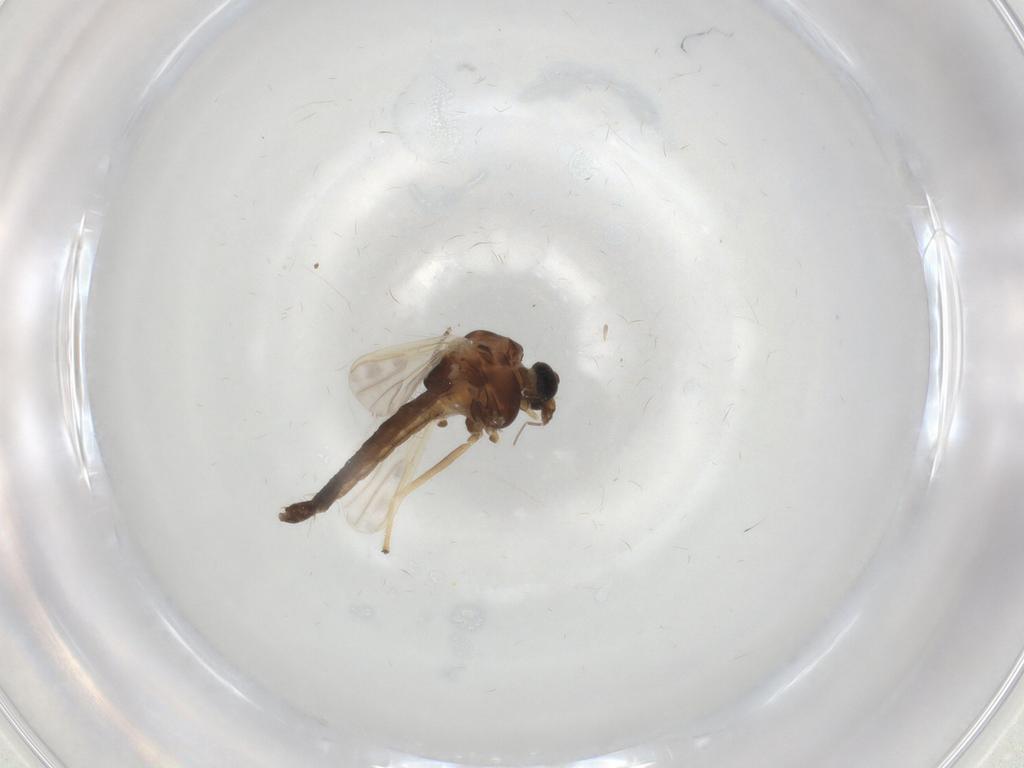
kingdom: Animalia
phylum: Arthropoda
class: Insecta
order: Diptera
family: Chironomidae
